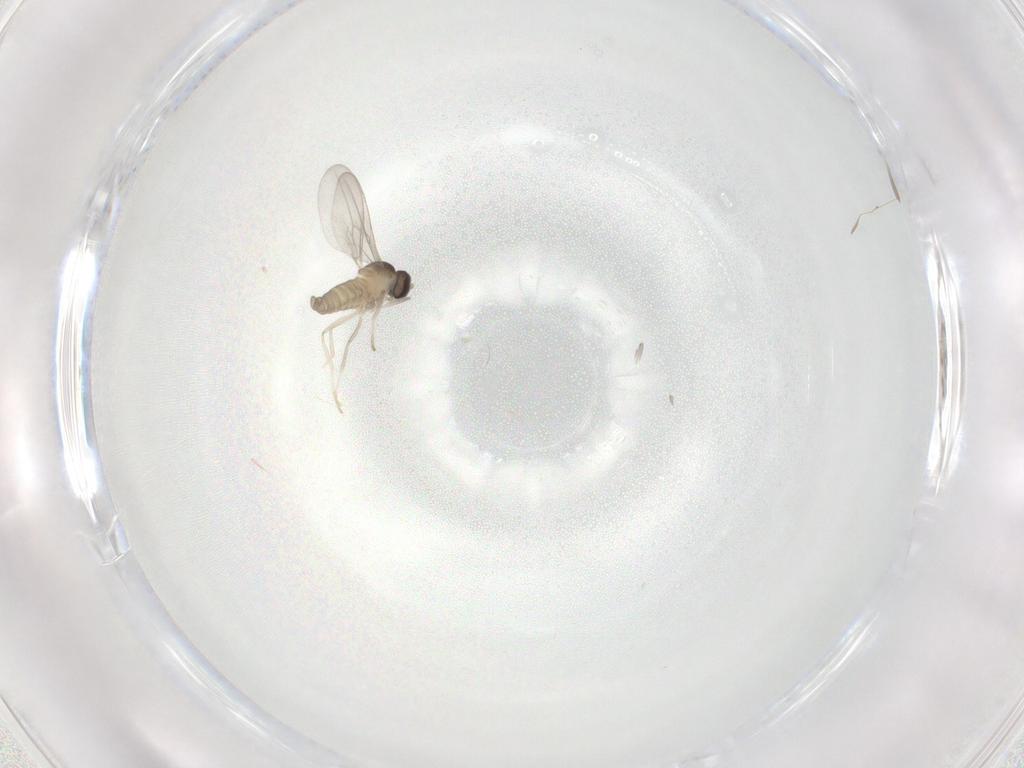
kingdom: Animalia
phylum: Arthropoda
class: Insecta
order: Diptera
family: Cecidomyiidae
